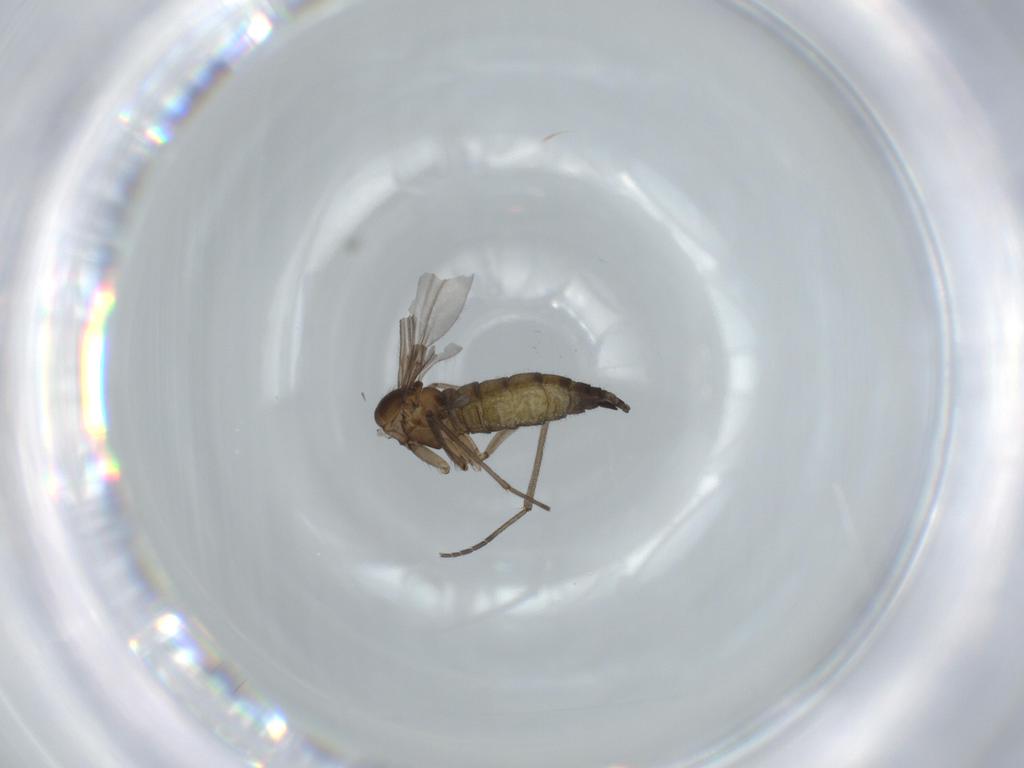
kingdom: Animalia
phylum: Arthropoda
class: Insecta
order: Diptera
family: Sciaridae
